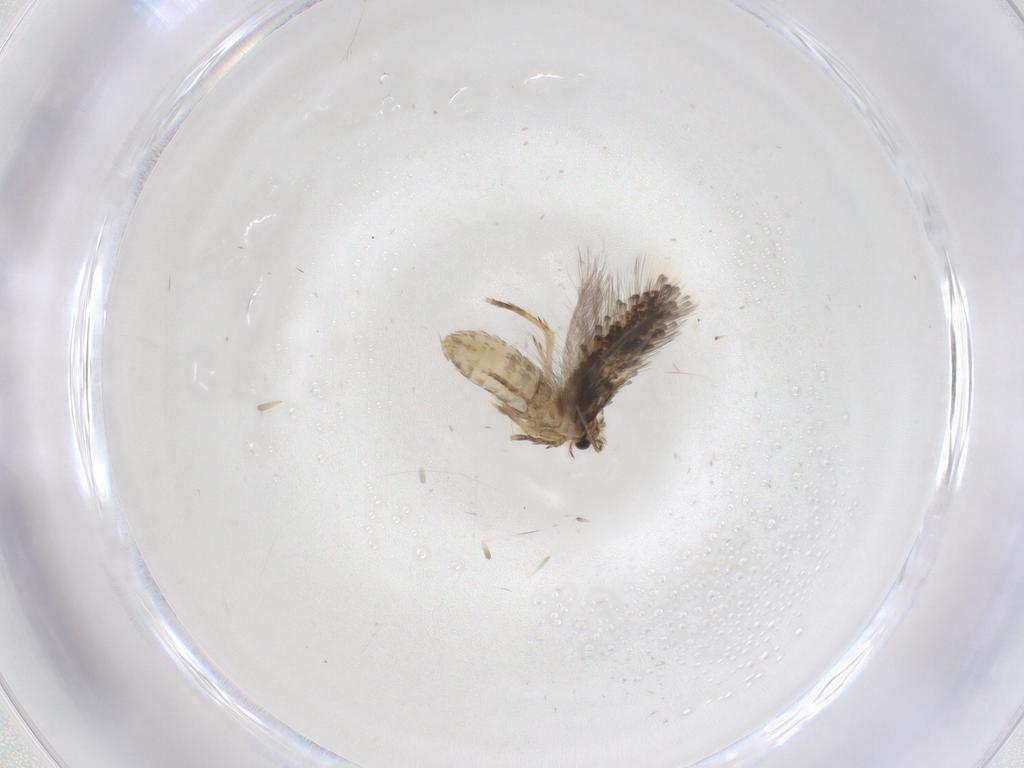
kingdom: Animalia
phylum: Arthropoda
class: Insecta
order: Lepidoptera
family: Nepticulidae
